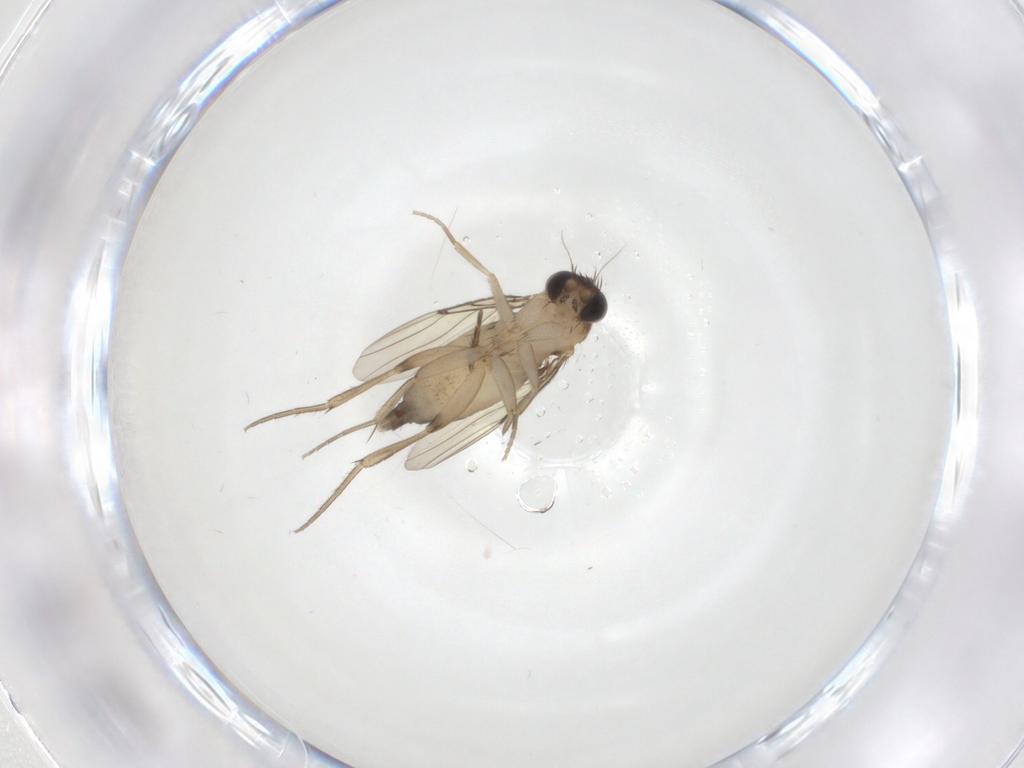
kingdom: Animalia
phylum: Arthropoda
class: Insecta
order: Diptera
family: Phoridae
